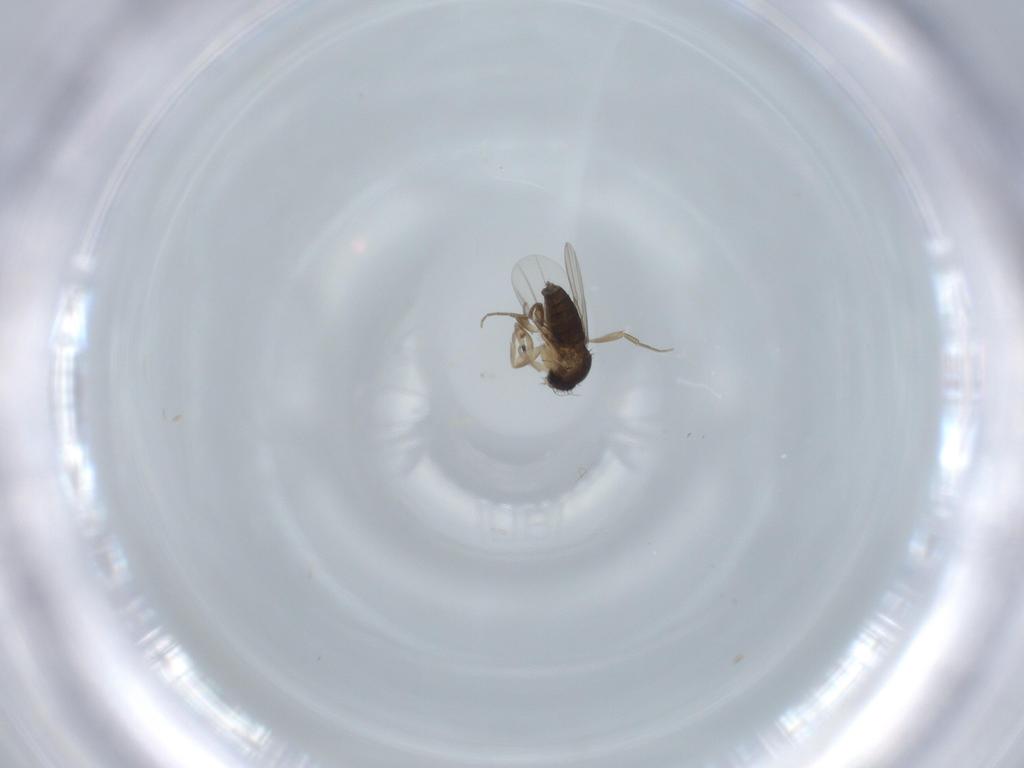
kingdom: Animalia
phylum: Arthropoda
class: Insecta
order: Diptera
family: Phoridae
